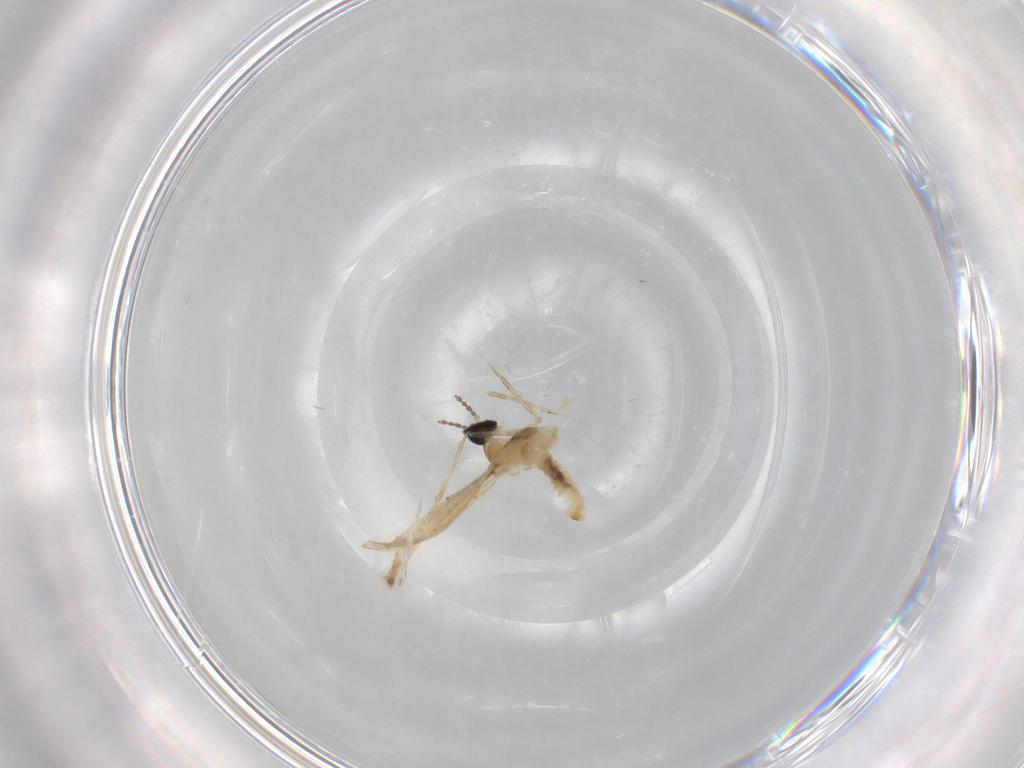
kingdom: Animalia
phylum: Arthropoda
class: Insecta
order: Diptera
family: Cecidomyiidae
